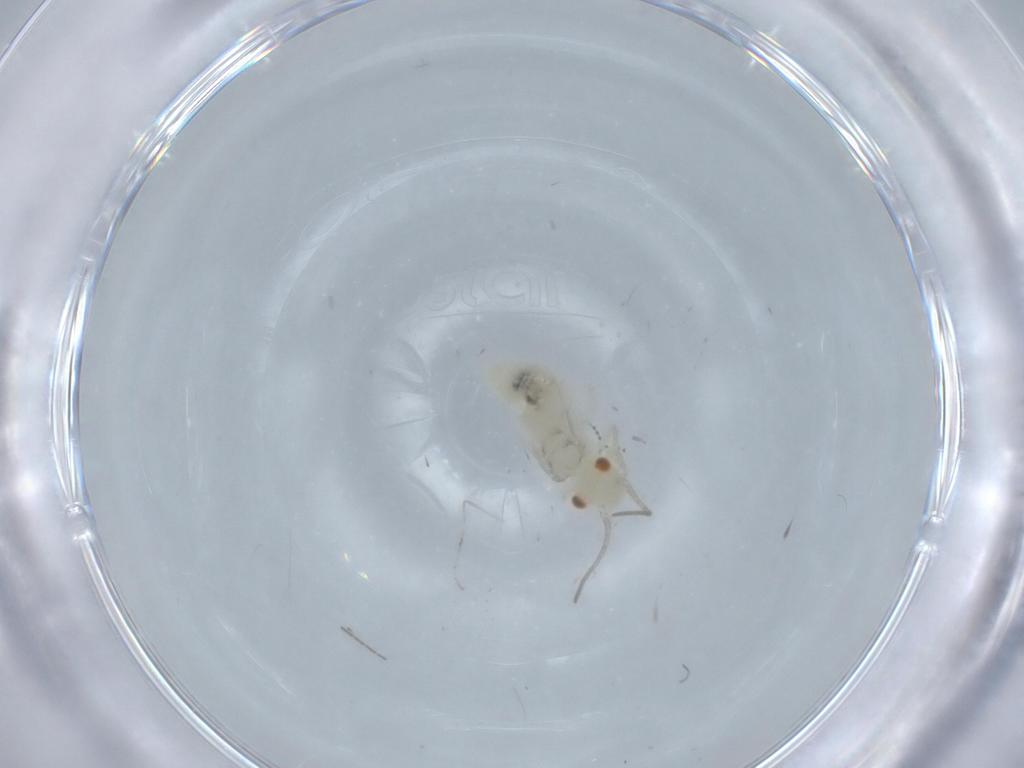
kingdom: Animalia
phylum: Arthropoda
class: Insecta
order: Psocodea
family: Caeciliusidae
